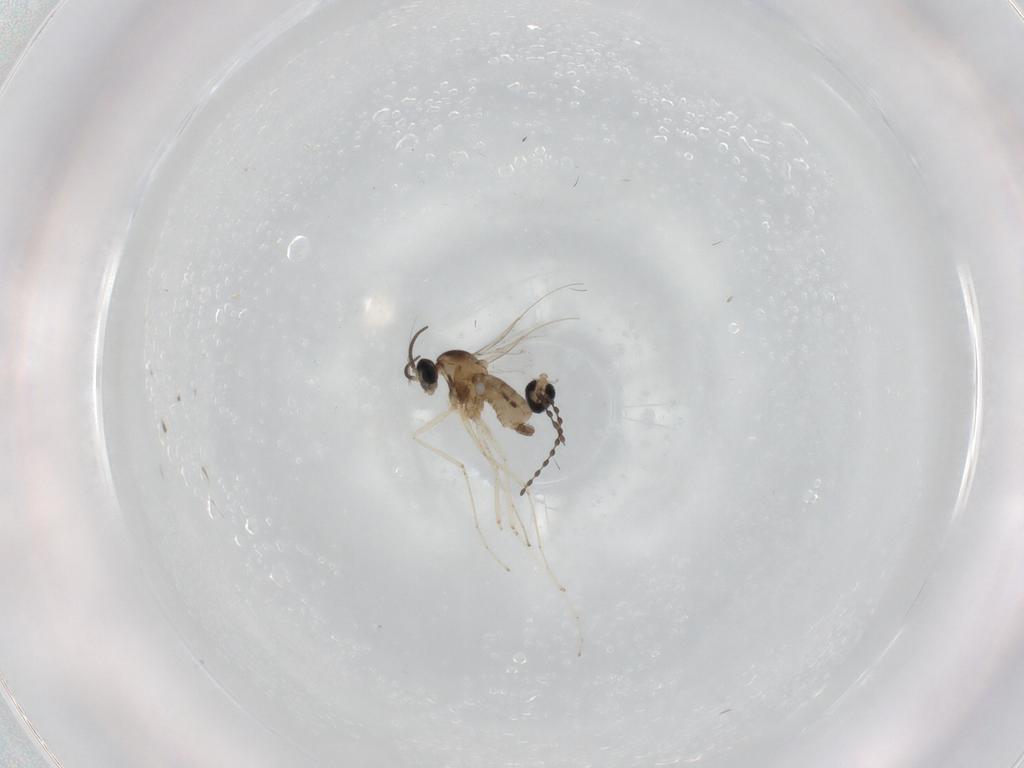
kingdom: Animalia
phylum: Arthropoda
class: Insecta
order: Diptera
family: Cecidomyiidae
